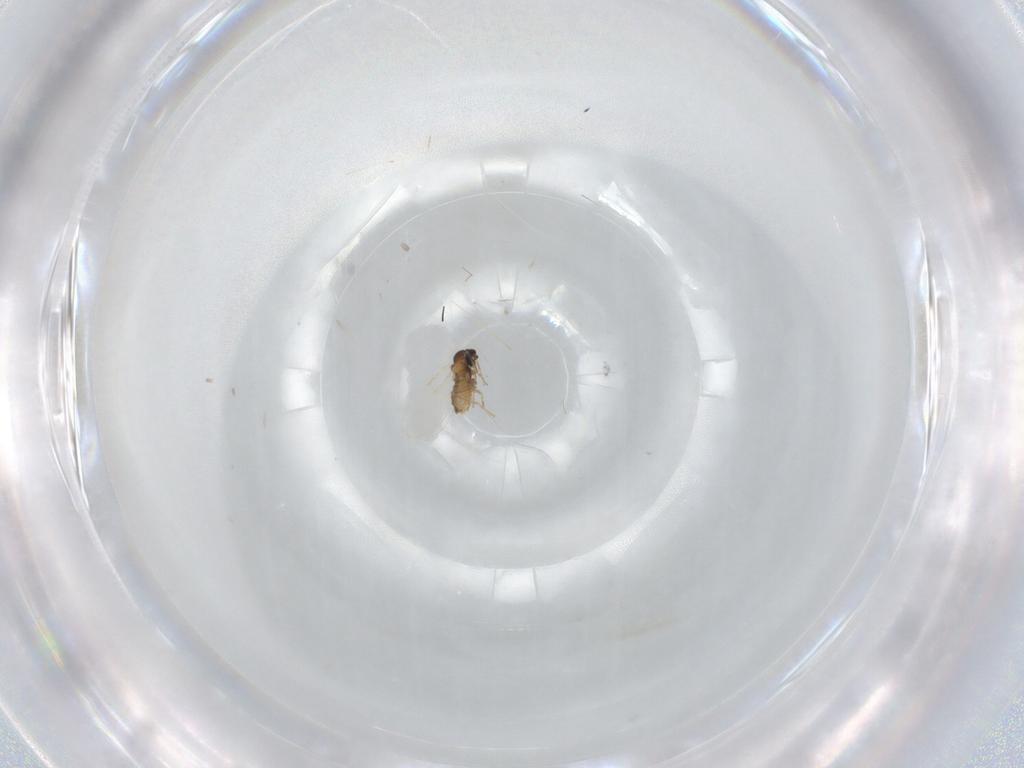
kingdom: Animalia
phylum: Arthropoda
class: Insecta
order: Diptera
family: Cecidomyiidae
